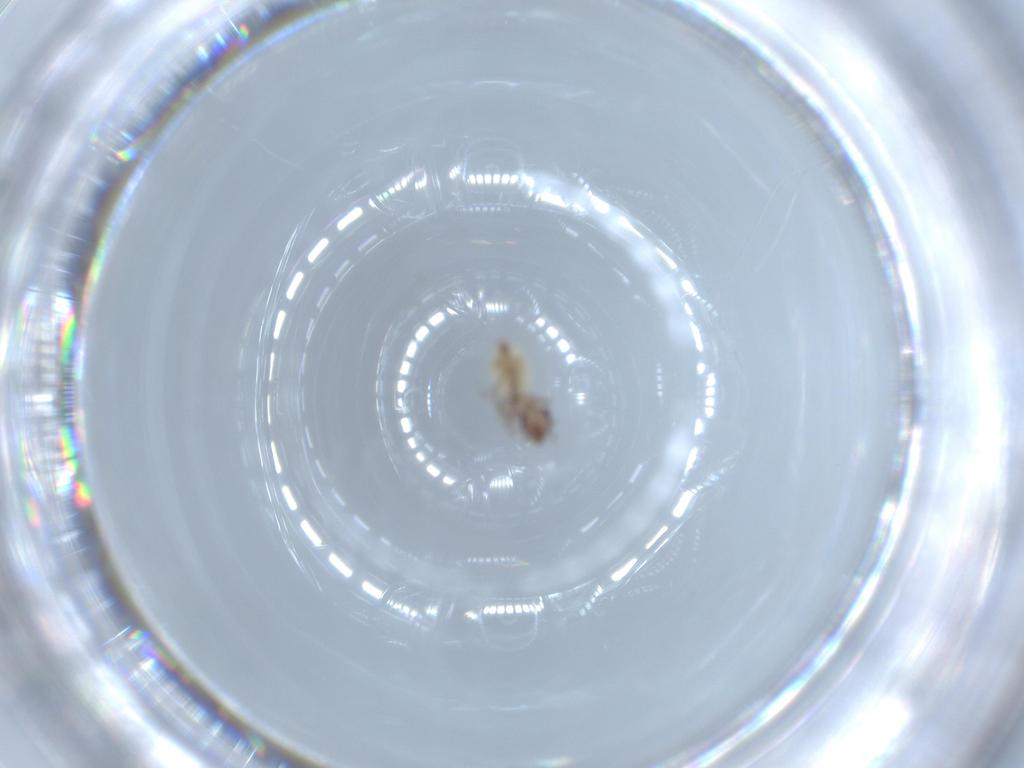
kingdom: Animalia
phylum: Arthropoda
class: Insecta
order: Psocodea
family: Lepidopsocidae
